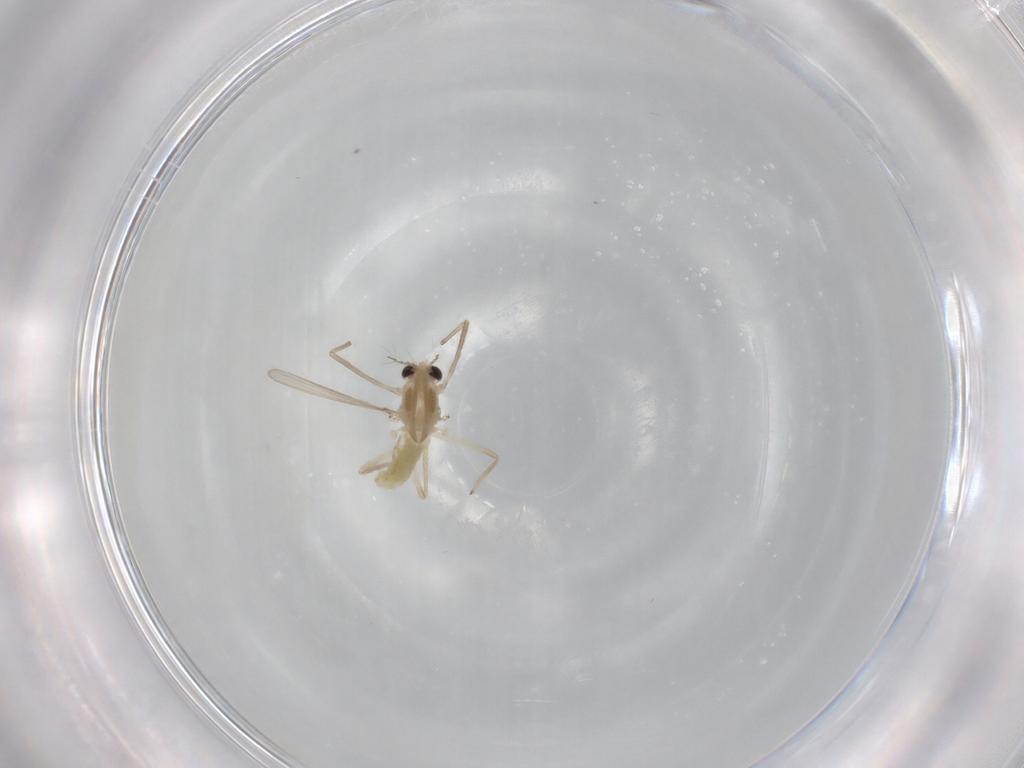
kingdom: Animalia
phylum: Arthropoda
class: Insecta
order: Diptera
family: Chironomidae
